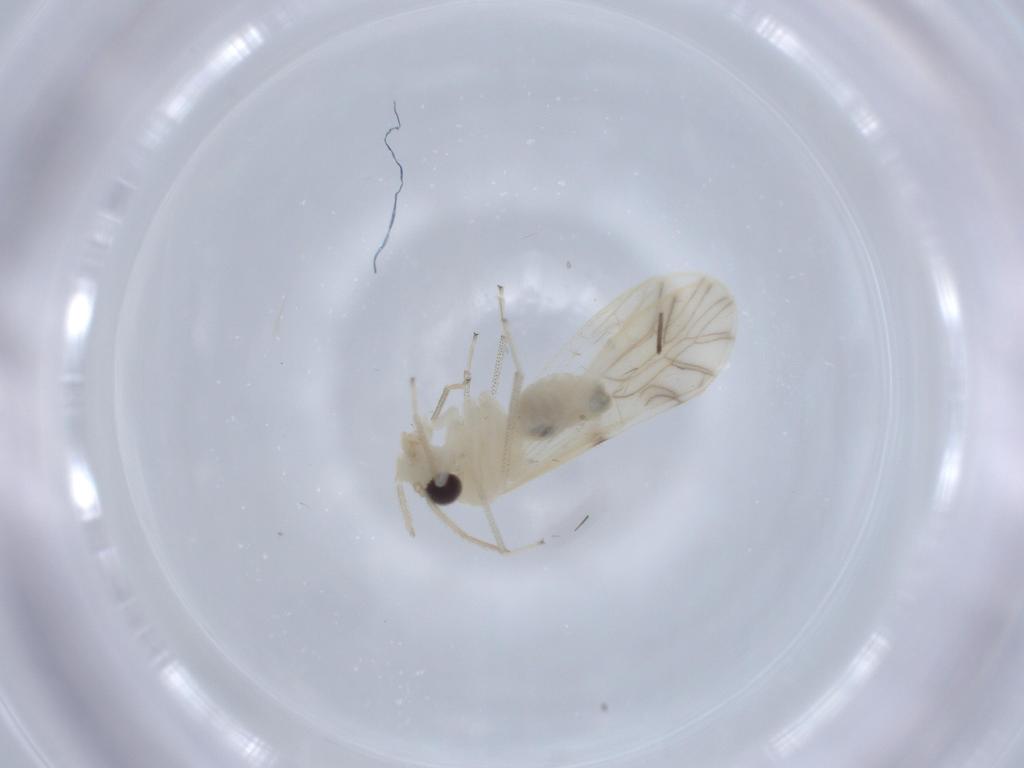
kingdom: Animalia
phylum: Arthropoda
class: Insecta
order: Psocodea
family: Caeciliusidae
